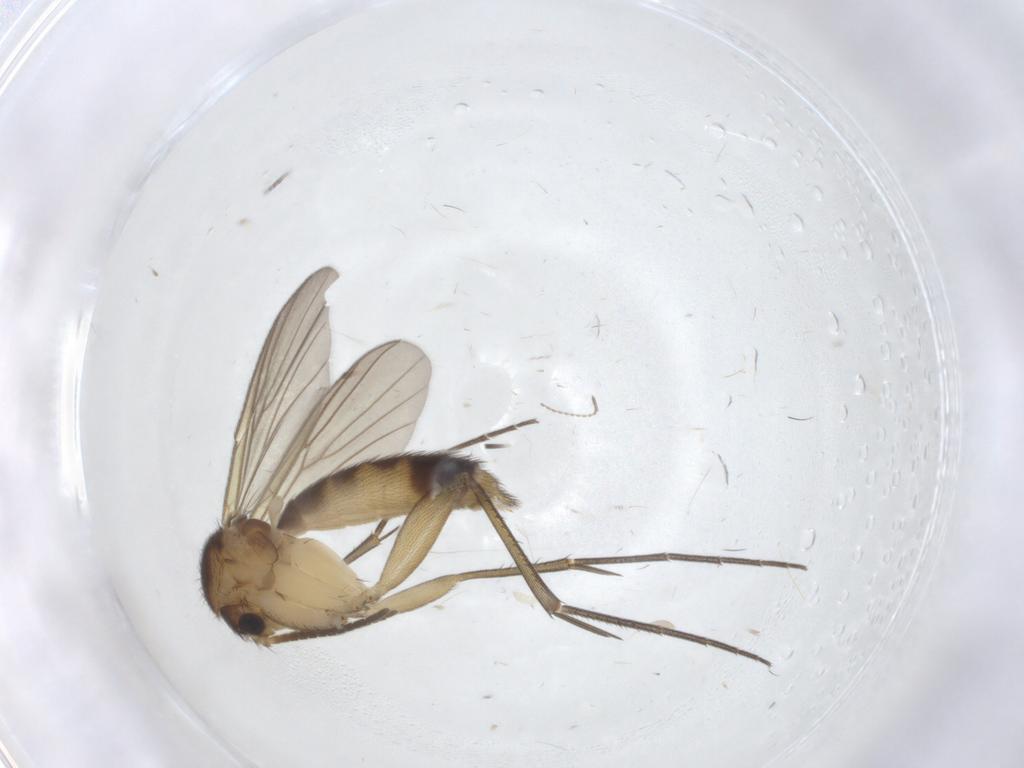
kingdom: Animalia
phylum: Arthropoda
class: Insecta
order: Diptera
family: Mycetophilidae
